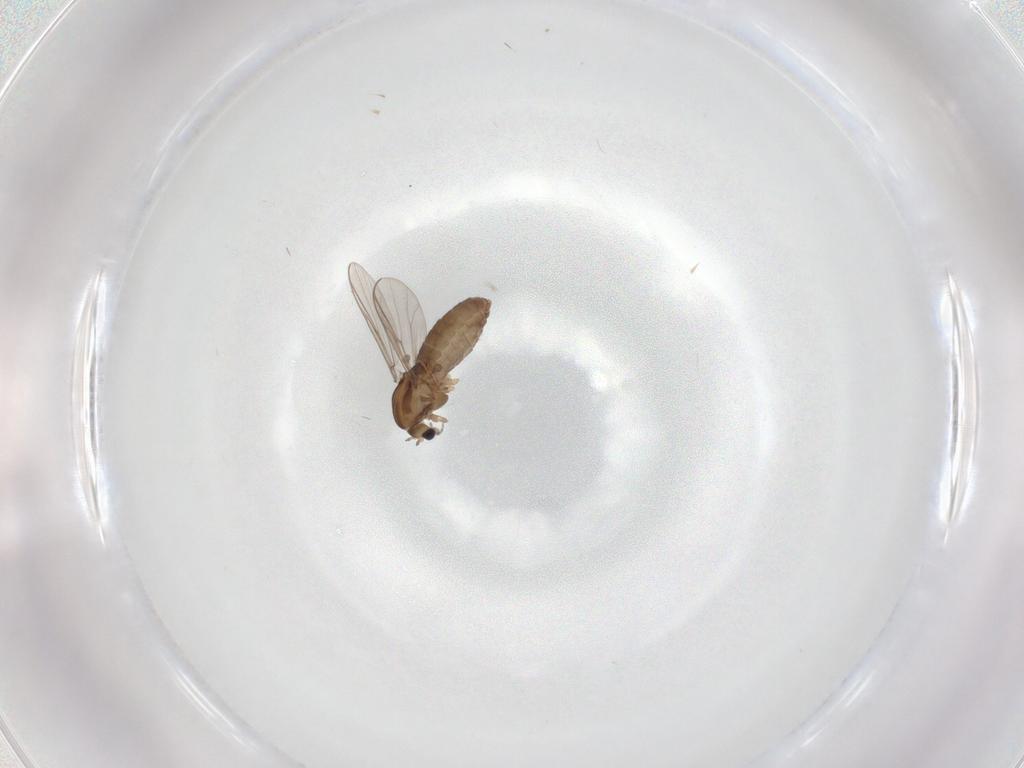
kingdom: Animalia
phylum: Arthropoda
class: Insecta
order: Diptera
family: Chironomidae
